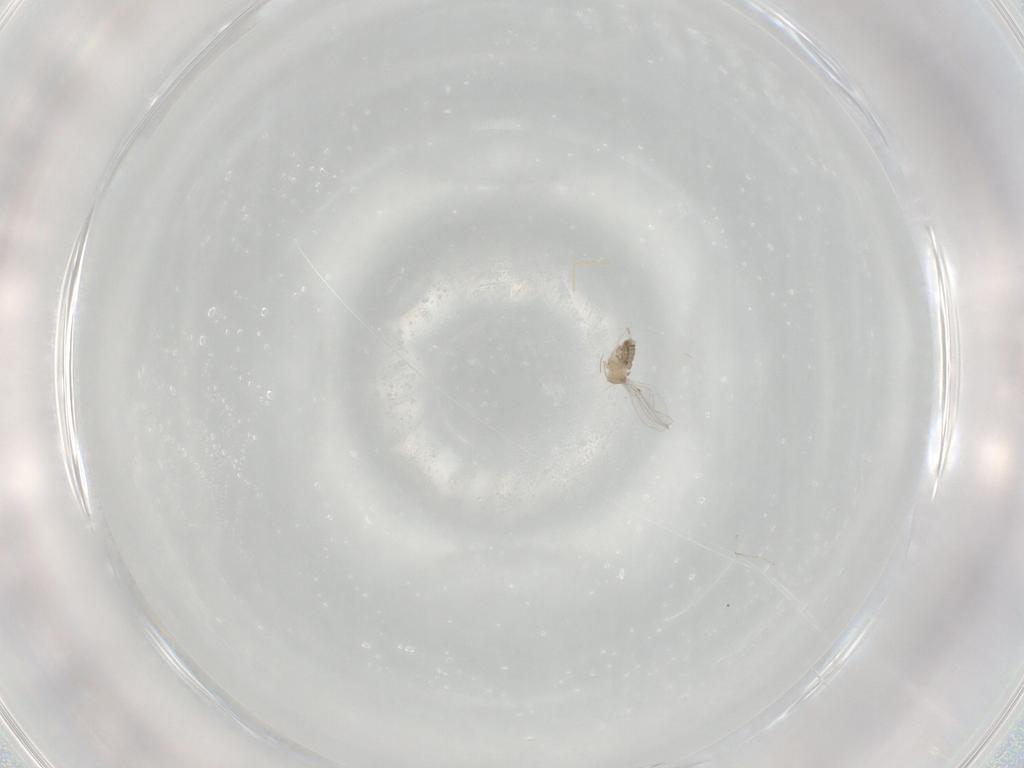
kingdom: Animalia
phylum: Arthropoda
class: Insecta
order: Diptera
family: Cecidomyiidae
